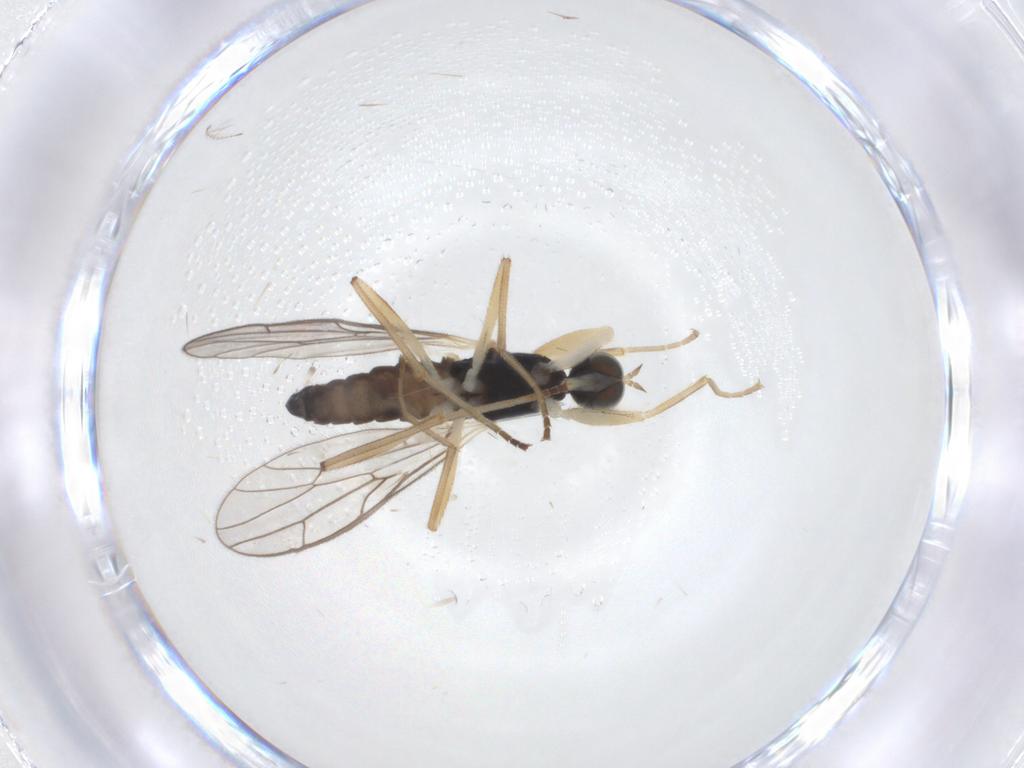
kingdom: Animalia
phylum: Arthropoda
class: Insecta
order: Diptera
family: Empididae
